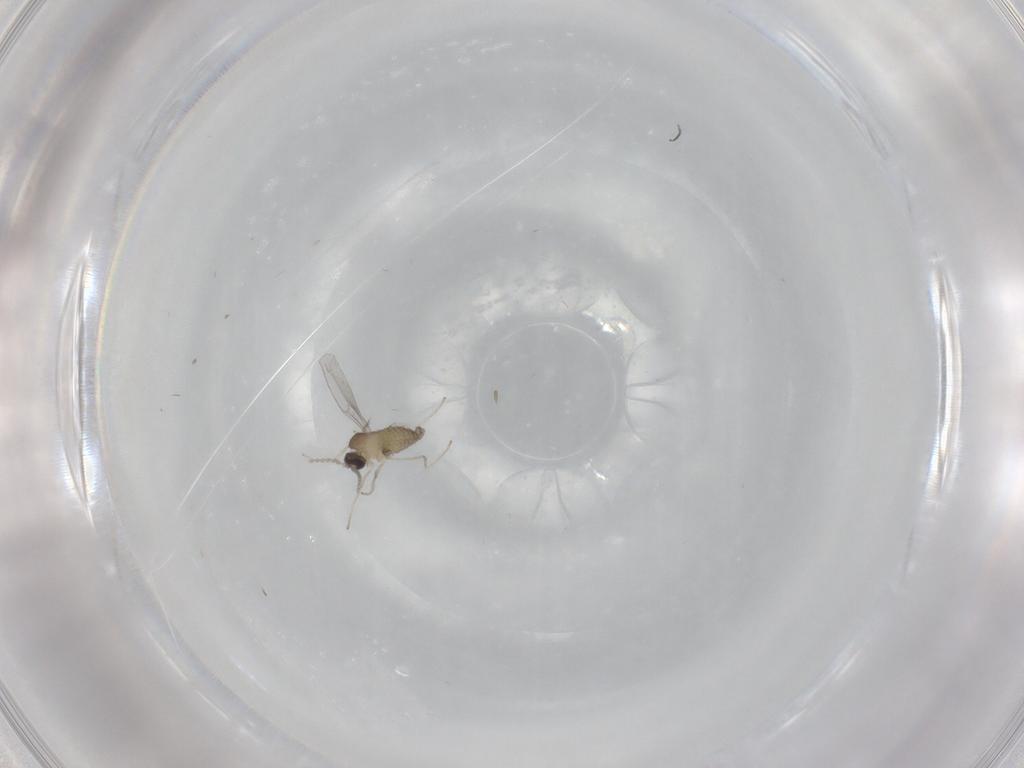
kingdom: Animalia
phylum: Arthropoda
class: Insecta
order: Diptera
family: Cecidomyiidae
